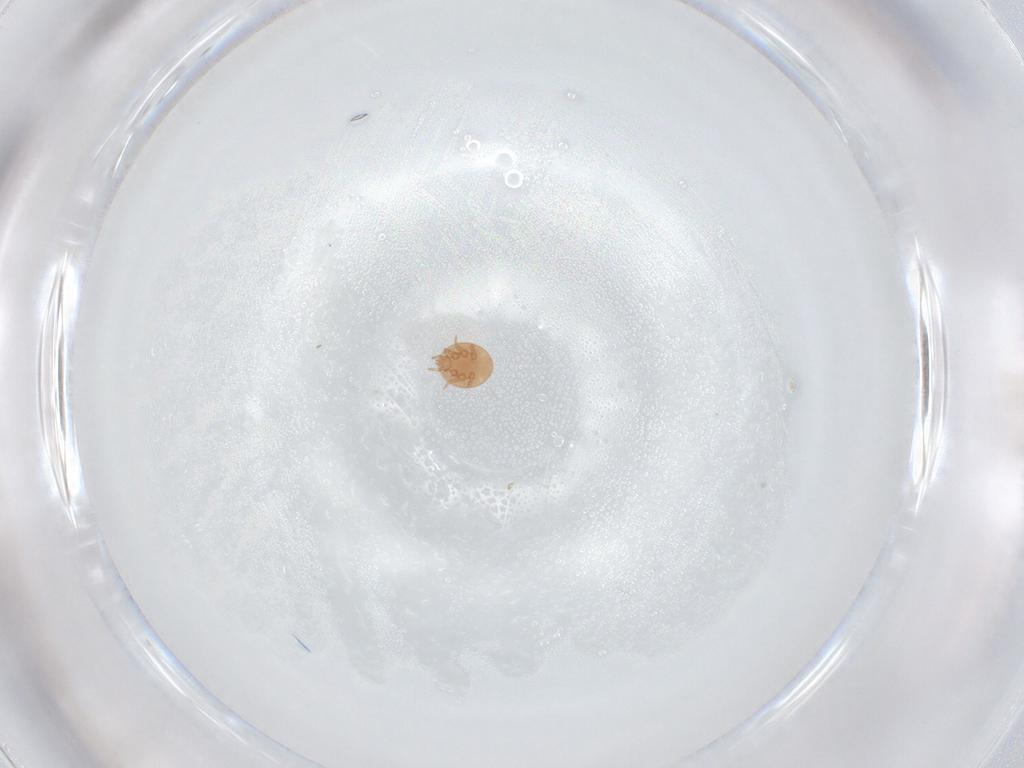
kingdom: Animalia
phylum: Arthropoda
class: Arachnida
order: Mesostigmata
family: Trematuridae
